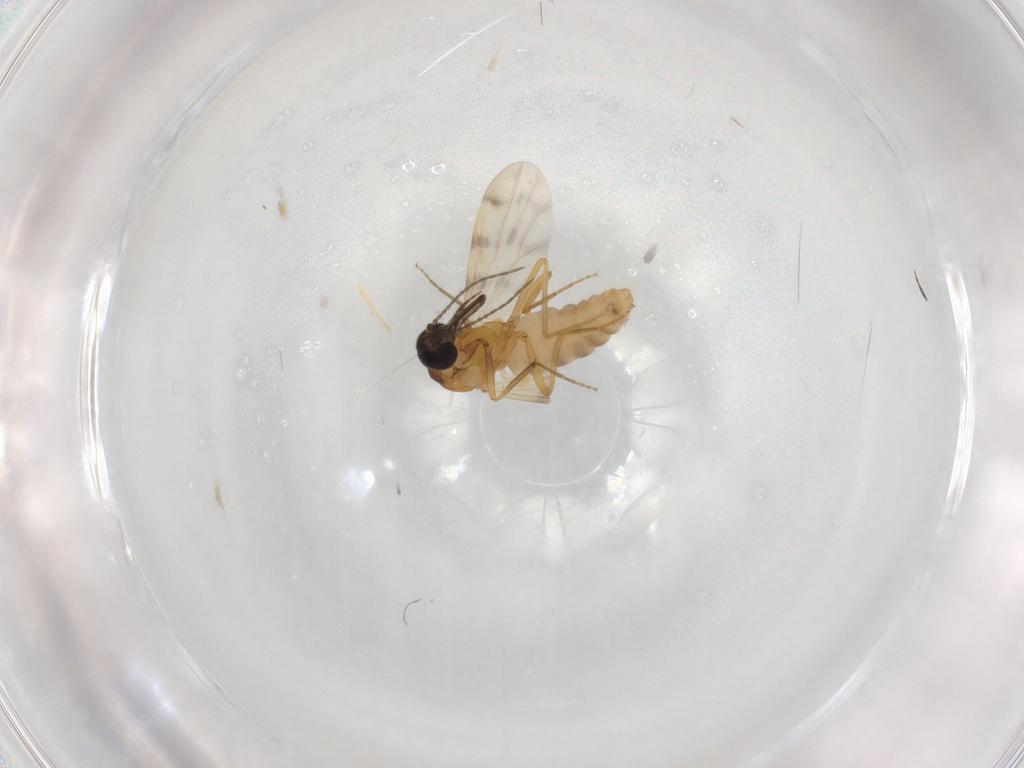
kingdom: Animalia
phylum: Arthropoda
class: Insecta
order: Diptera
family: Ceratopogonidae
